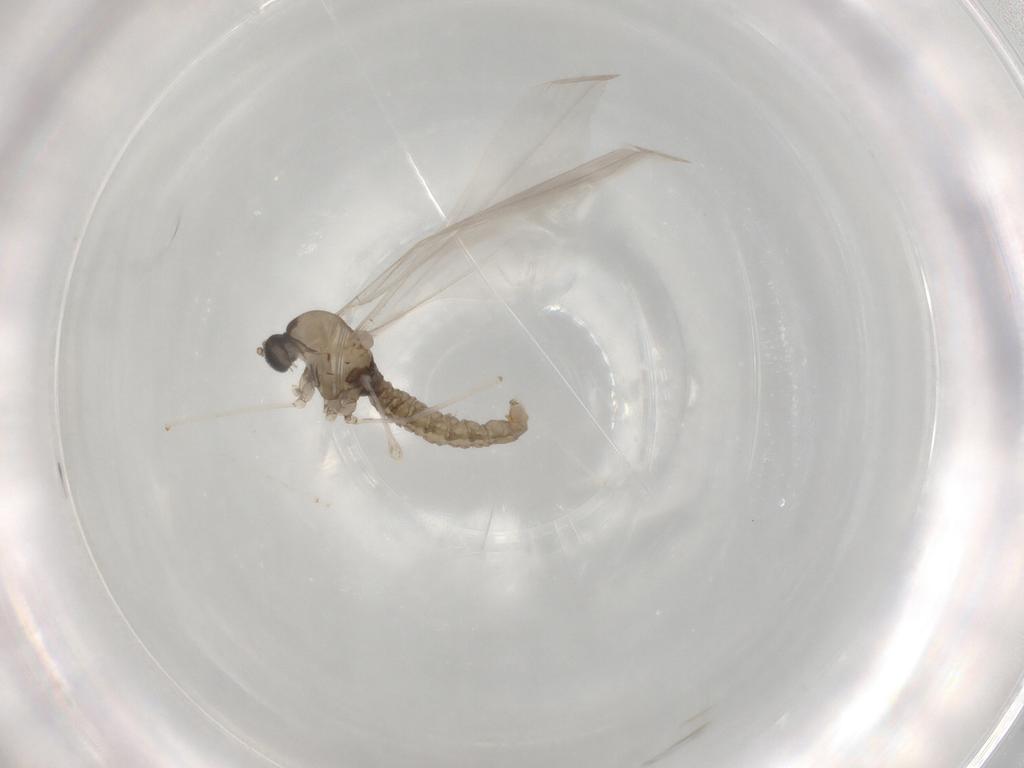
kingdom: Animalia
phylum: Arthropoda
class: Insecta
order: Diptera
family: Cecidomyiidae
